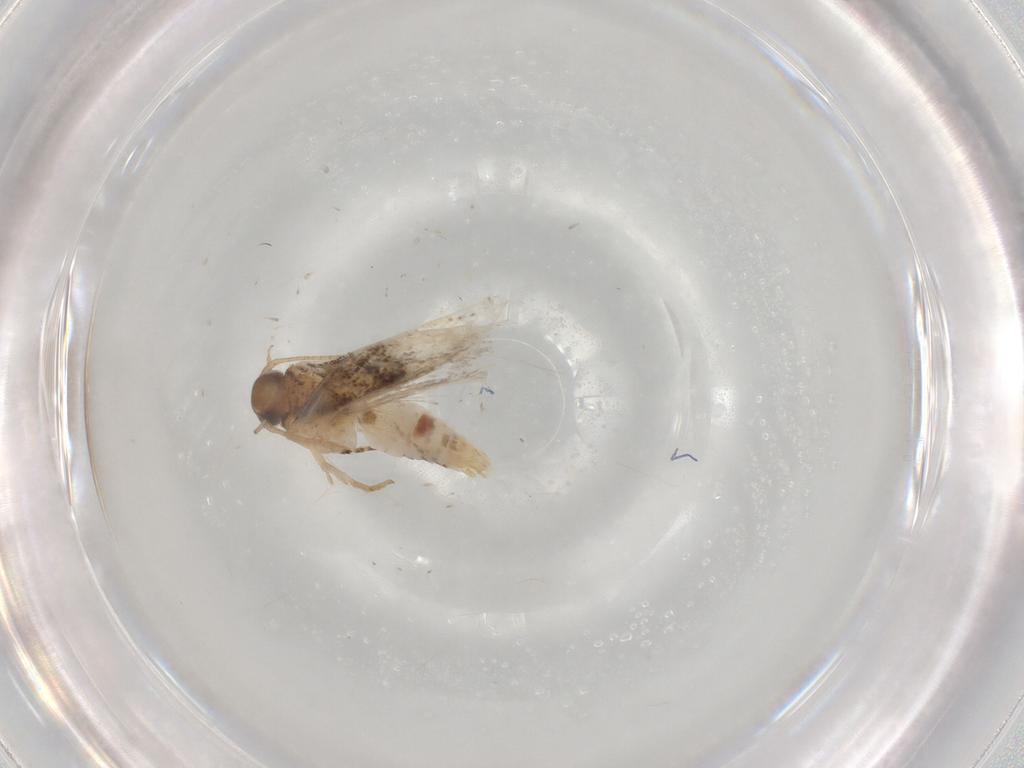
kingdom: Animalia
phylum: Arthropoda
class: Insecta
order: Lepidoptera
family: Gelechiidae
